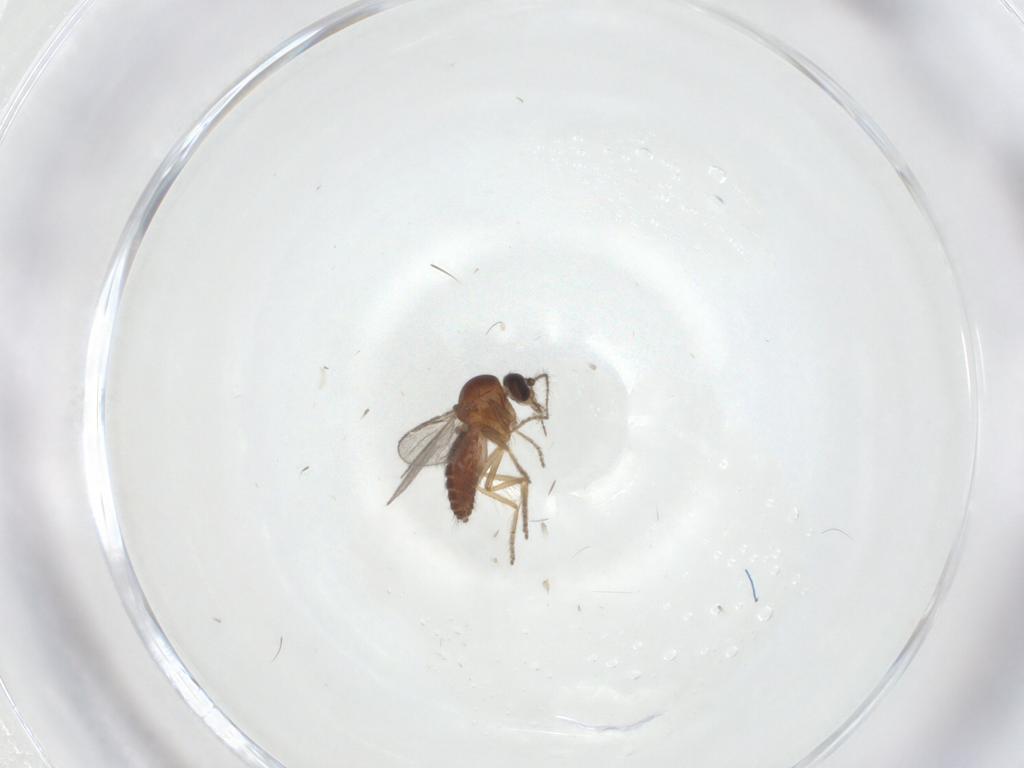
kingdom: Animalia
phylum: Arthropoda
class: Insecta
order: Diptera
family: Ceratopogonidae
